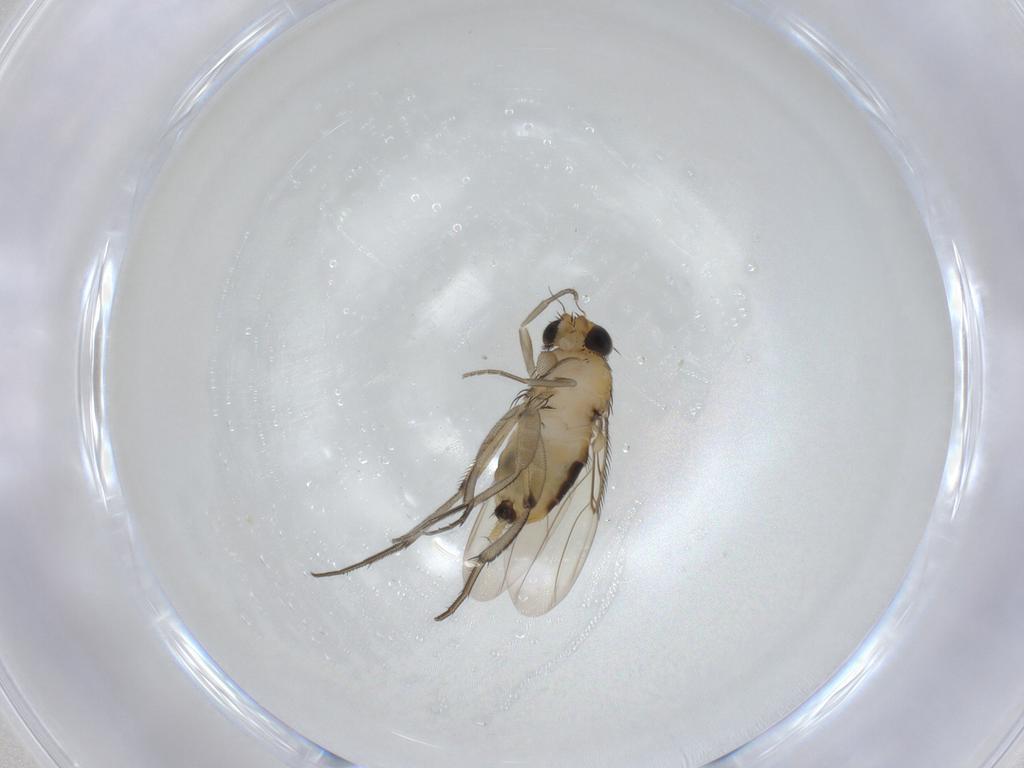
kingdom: Animalia
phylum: Arthropoda
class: Insecta
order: Diptera
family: Phoridae
